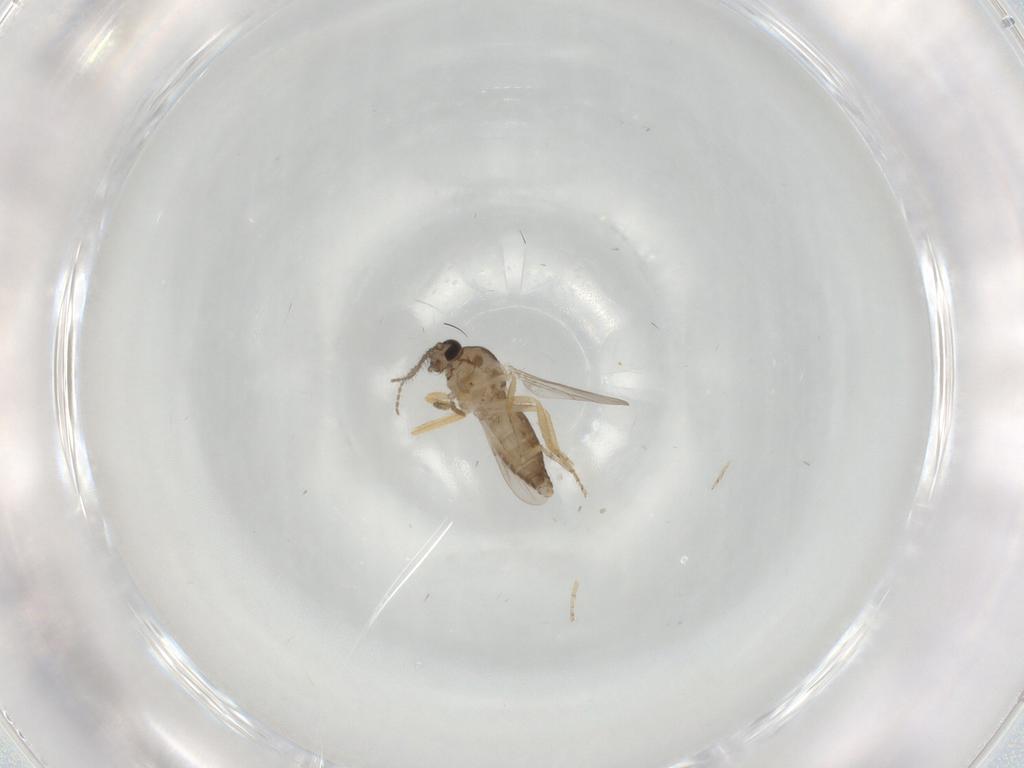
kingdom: Animalia
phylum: Arthropoda
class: Insecta
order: Diptera
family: Ceratopogonidae
